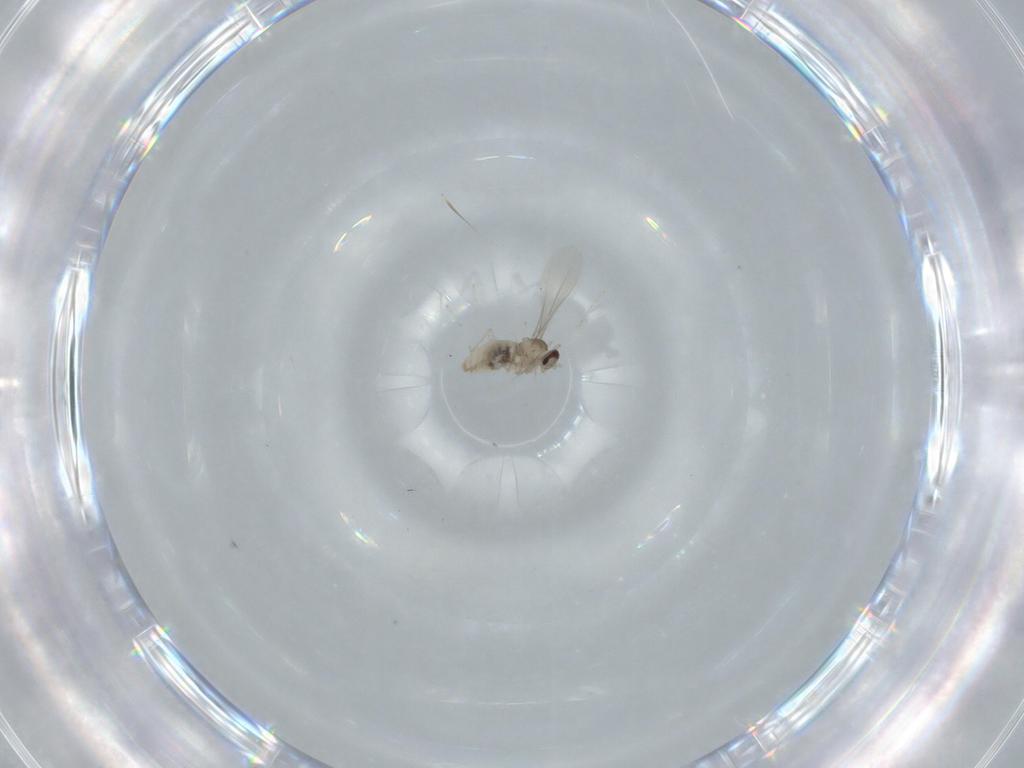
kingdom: Animalia
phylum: Arthropoda
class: Insecta
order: Diptera
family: Cecidomyiidae
